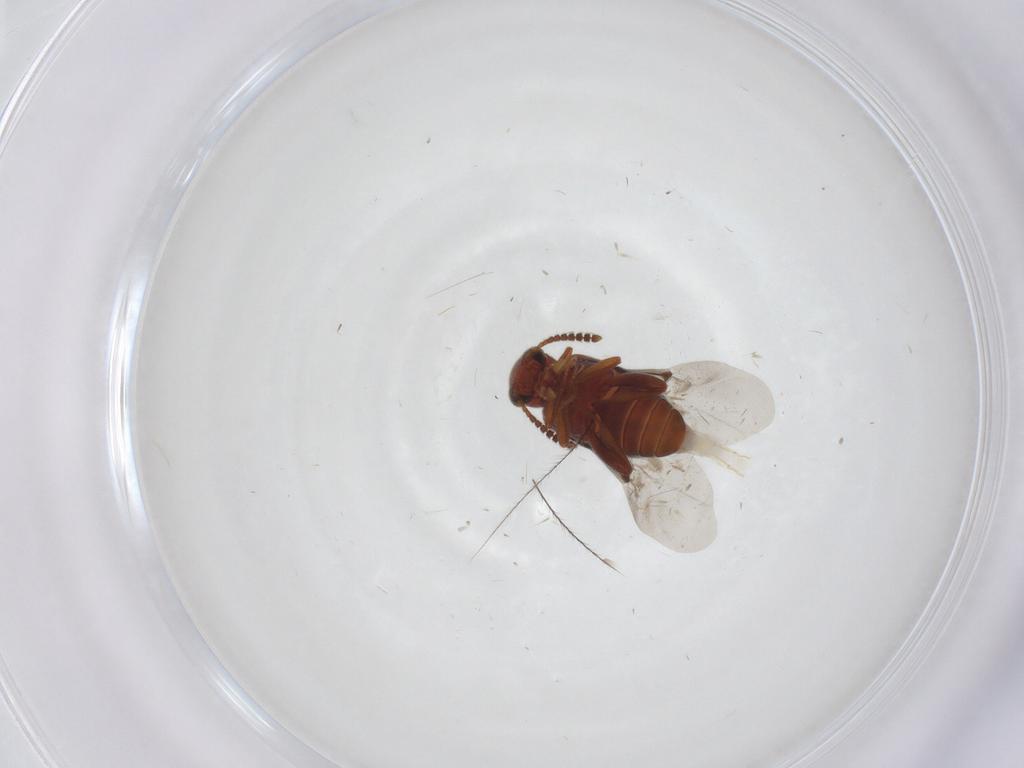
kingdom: Animalia
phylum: Arthropoda
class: Insecta
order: Coleoptera
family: Aderidae
